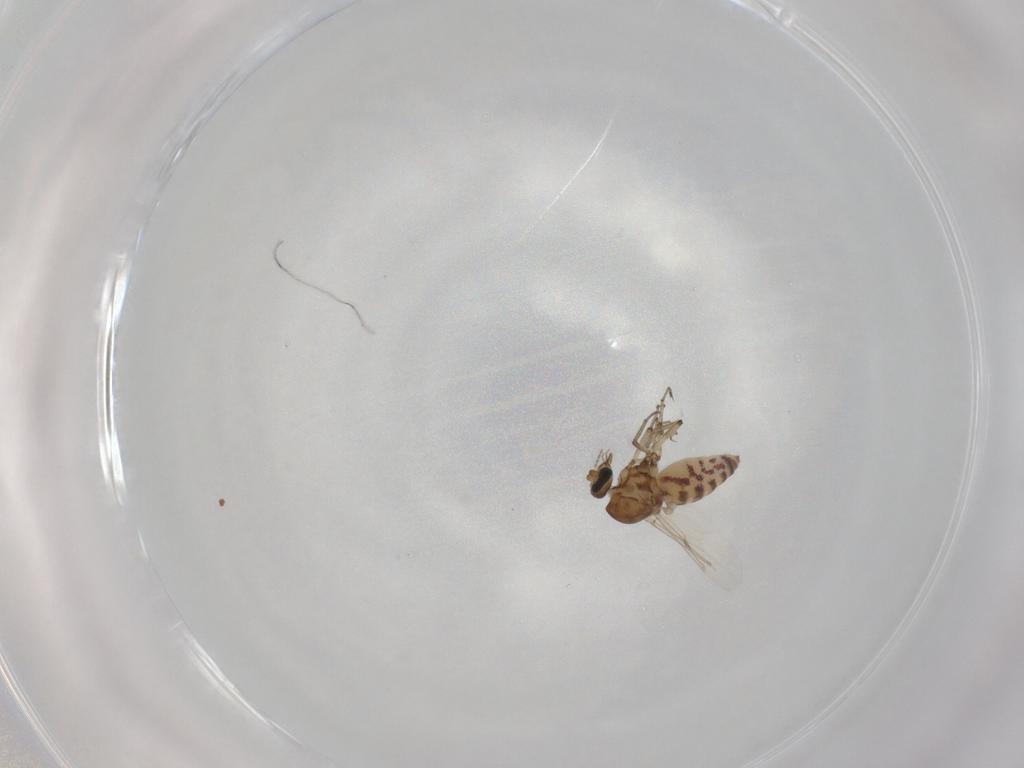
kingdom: Animalia
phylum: Arthropoda
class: Insecta
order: Diptera
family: Ceratopogonidae
